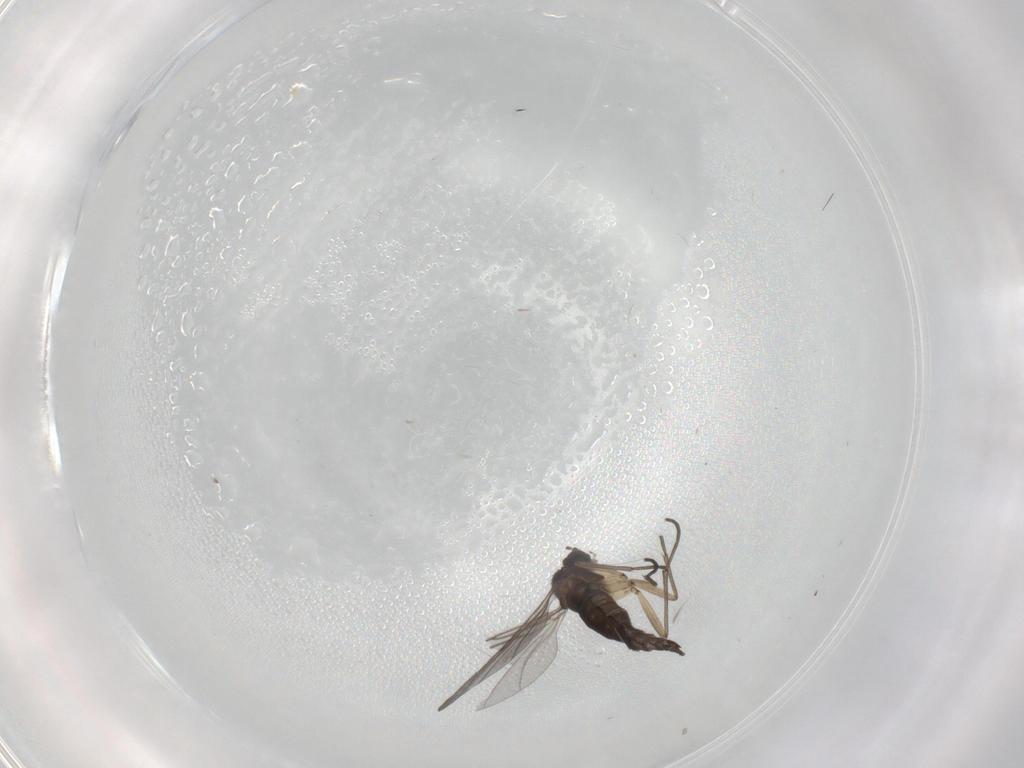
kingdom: Animalia
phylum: Arthropoda
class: Insecta
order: Diptera
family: Sciaridae
